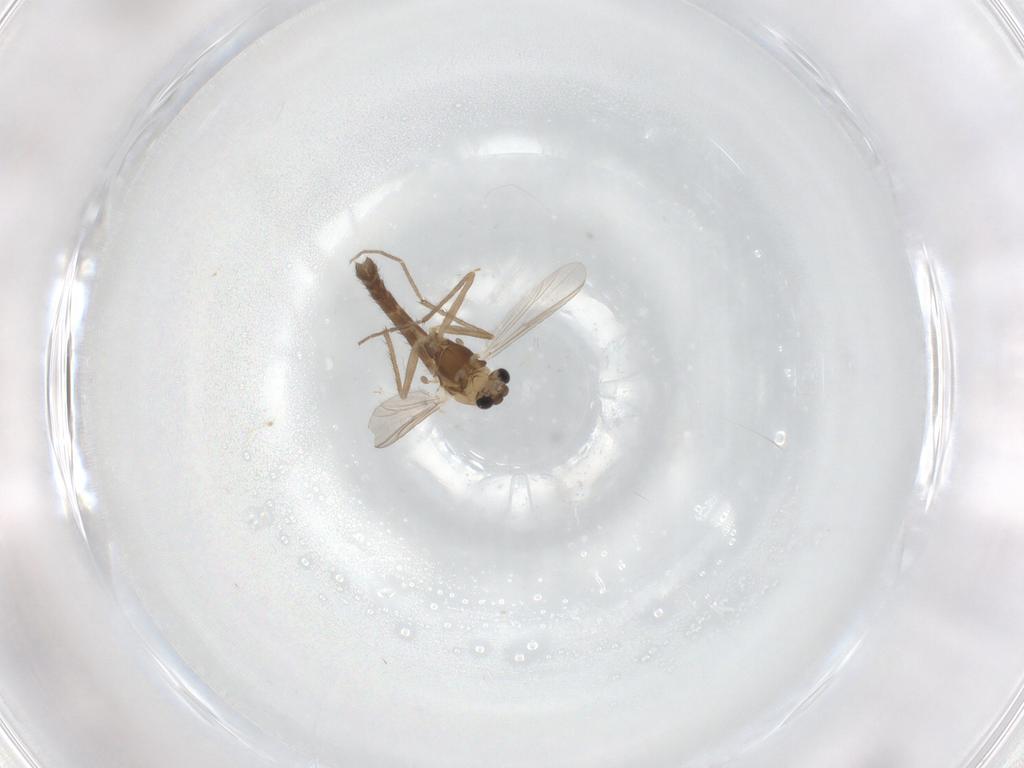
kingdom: Animalia
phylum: Arthropoda
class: Insecta
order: Diptera
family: Chironomidae
